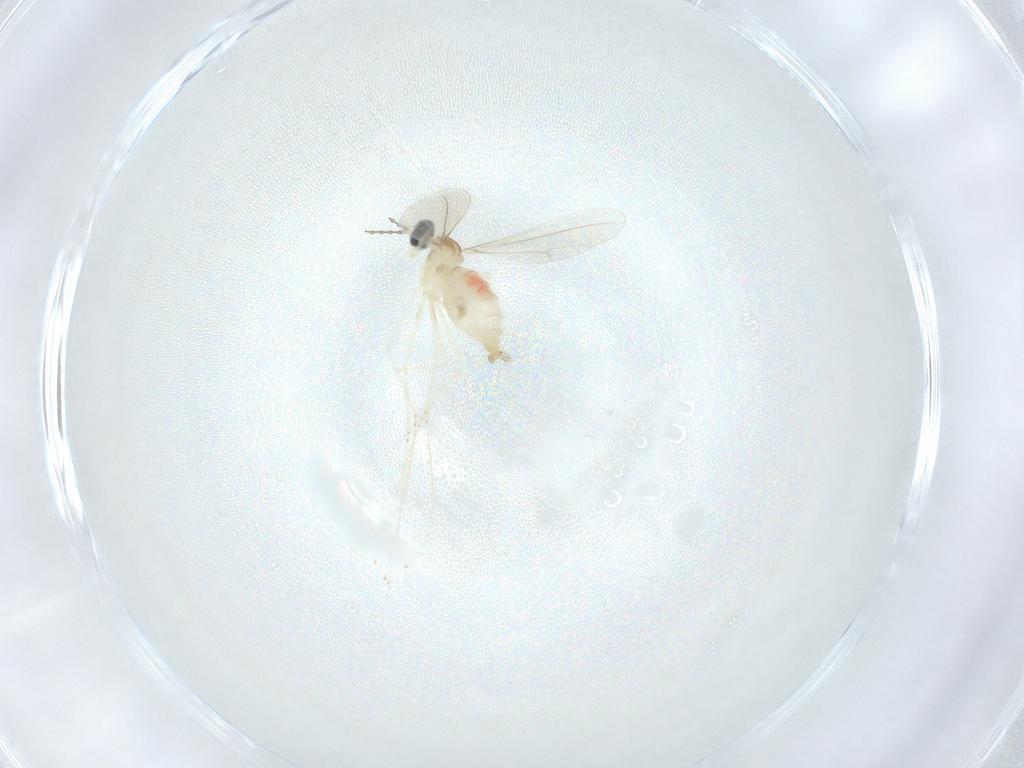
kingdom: Animalia
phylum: Arthropoda
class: Insecta
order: Diptera
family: Cecidomyiidae
